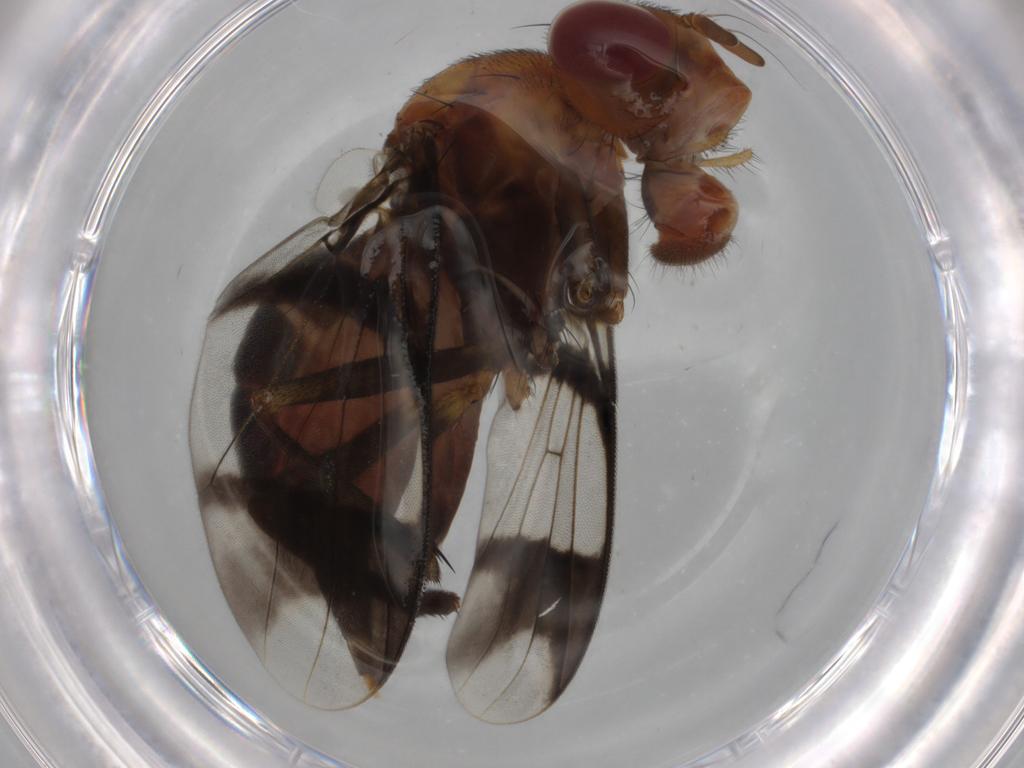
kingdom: Animalia
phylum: Arthropoda
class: Insecta
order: Diptera
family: Richardiidae
